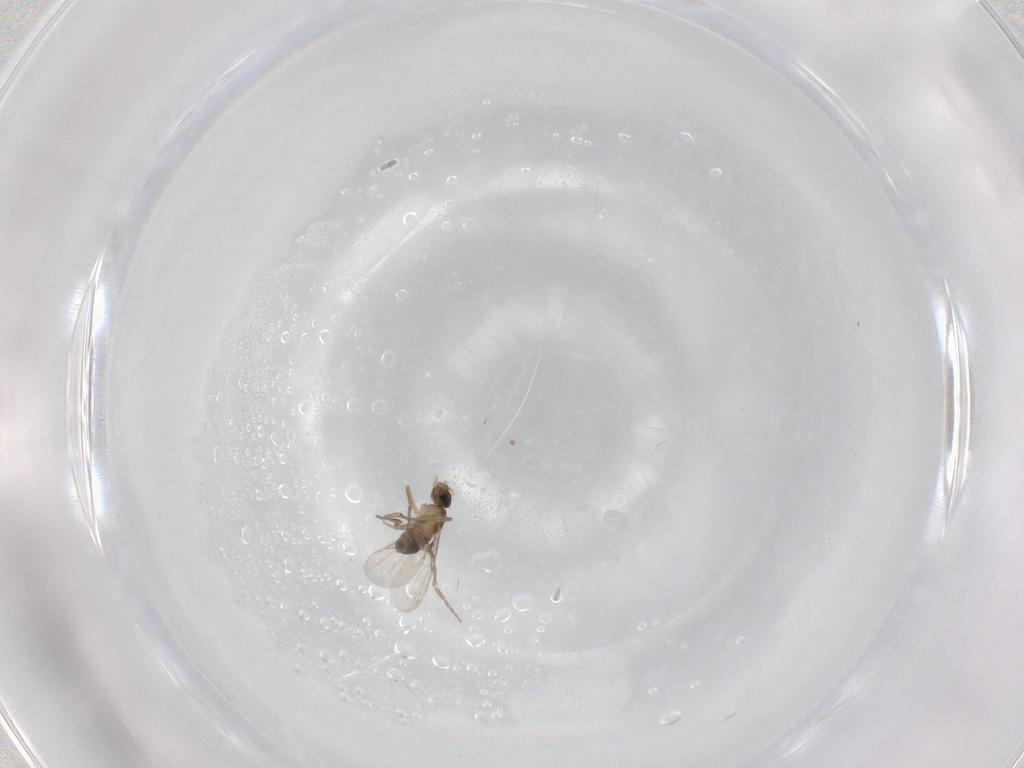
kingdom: Animalia
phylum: Arthropoda
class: Insecta
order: Diptera
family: Phoridae
